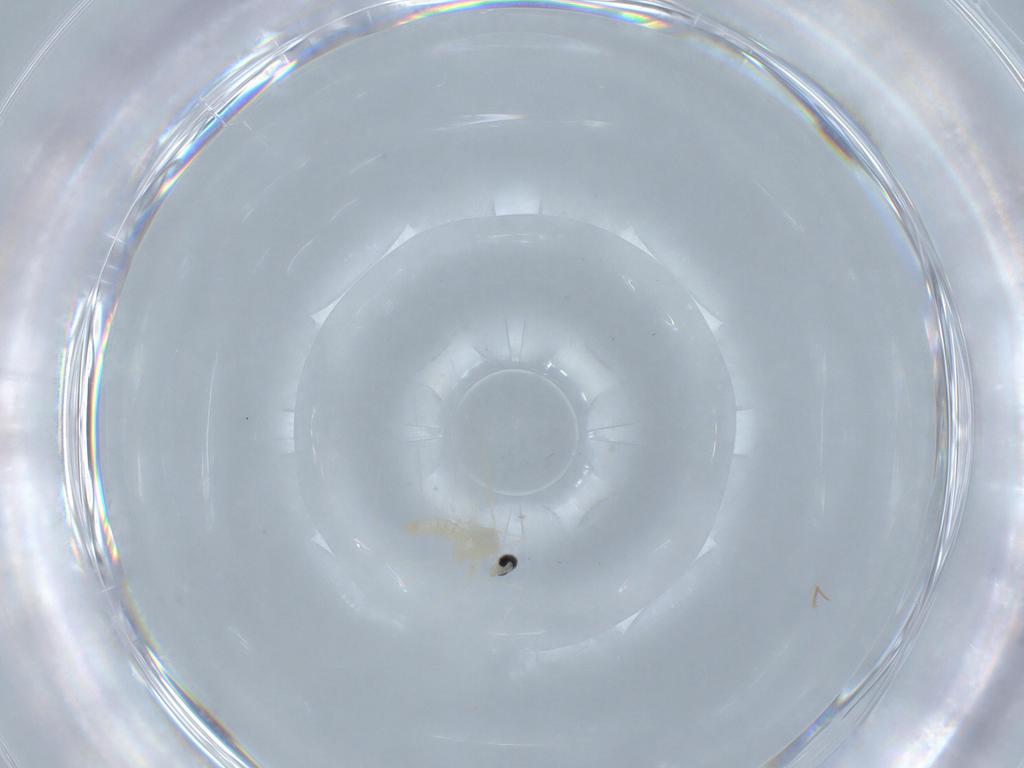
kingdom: Animalia
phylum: Arthropoda
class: Insecta
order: Diptera
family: Cecidomyiidae
